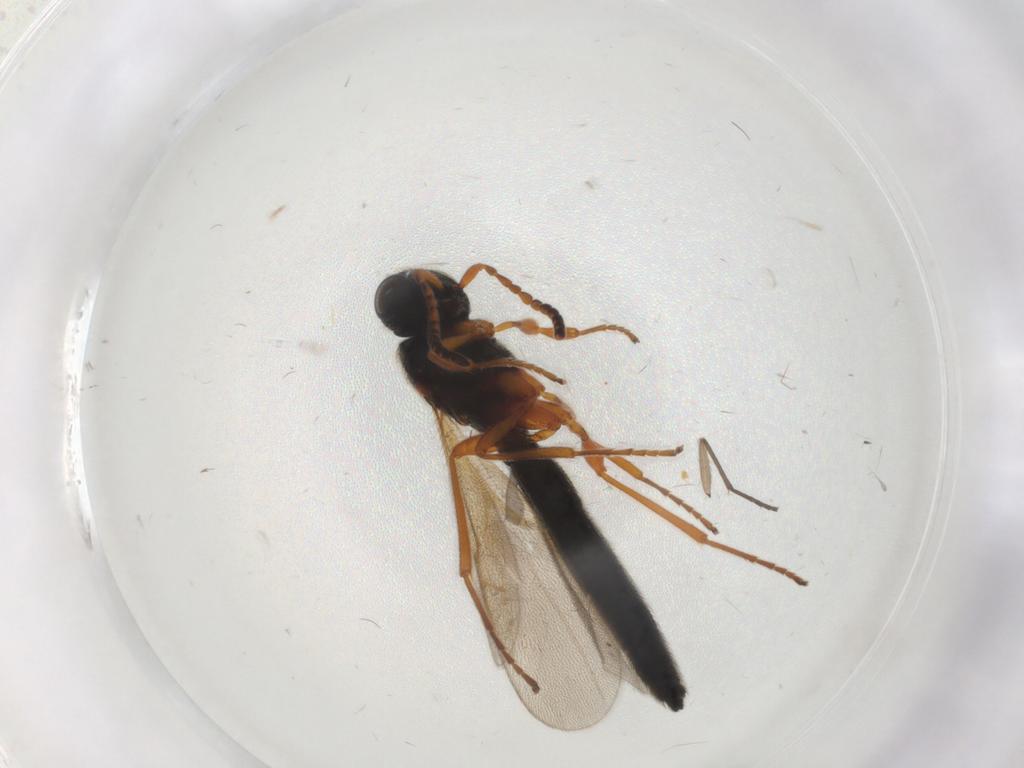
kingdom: Animalia
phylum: Arthropoda
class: Insecta
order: Hymenoptera
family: Scelionidae
